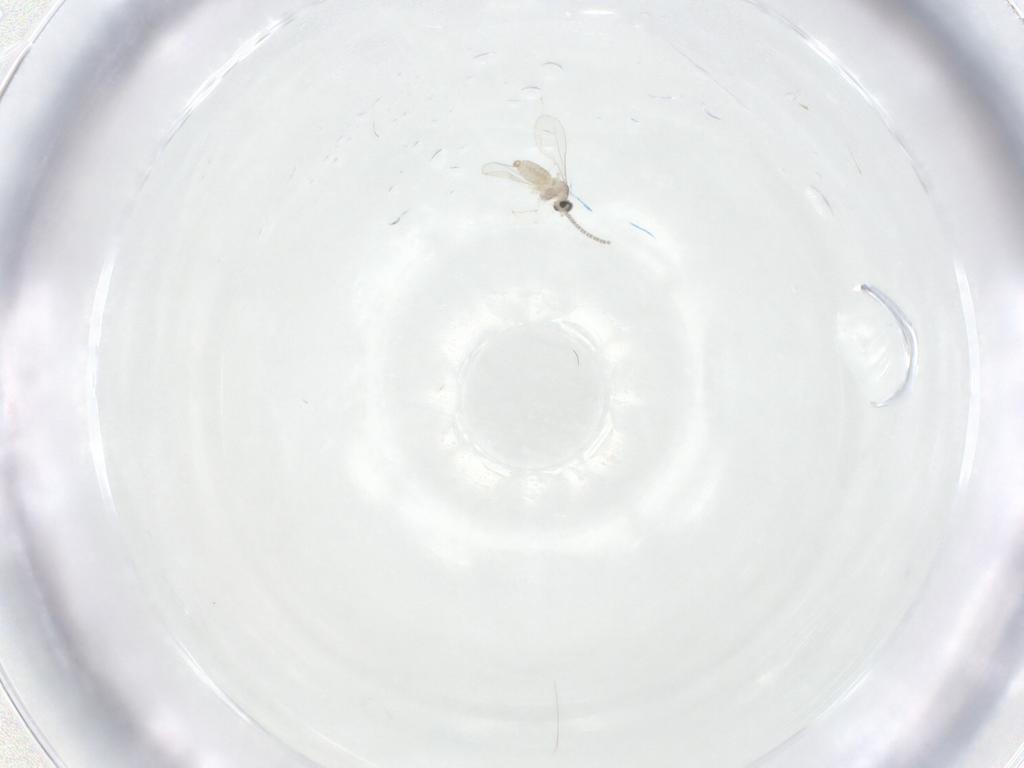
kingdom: Animalia
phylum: Arthropoda
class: Insecta
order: Diptera
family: Cecidomyiidae
